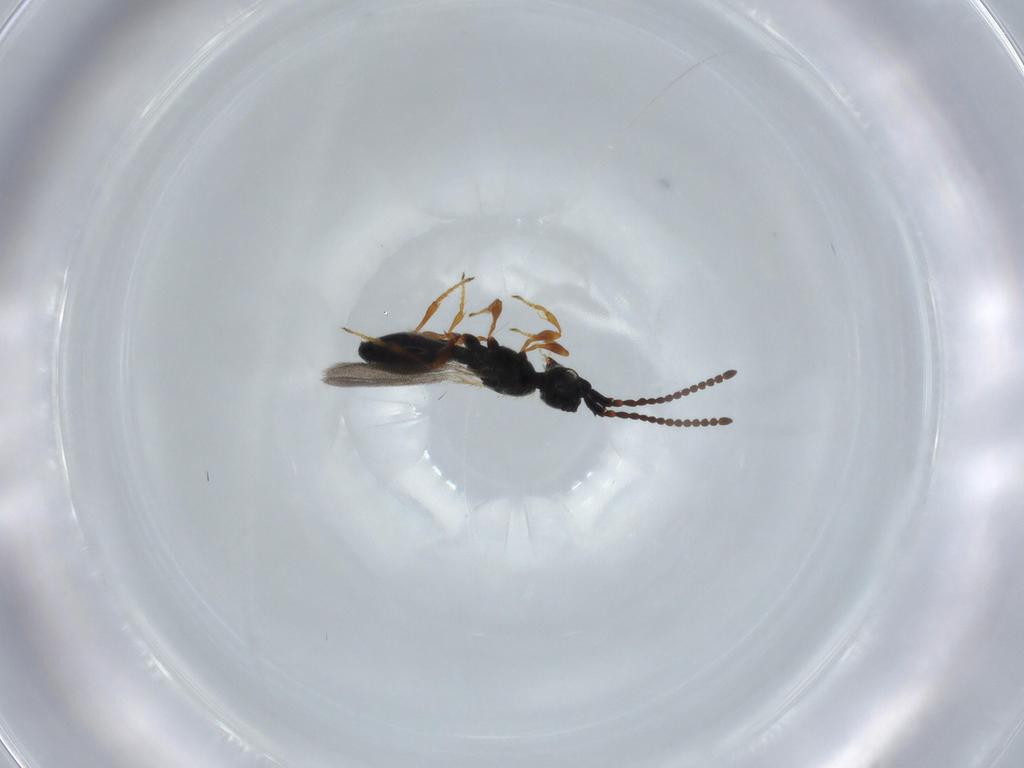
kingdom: Animalia
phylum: Arthropoda
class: Insecta
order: Hymenoptera
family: Diapriidae
